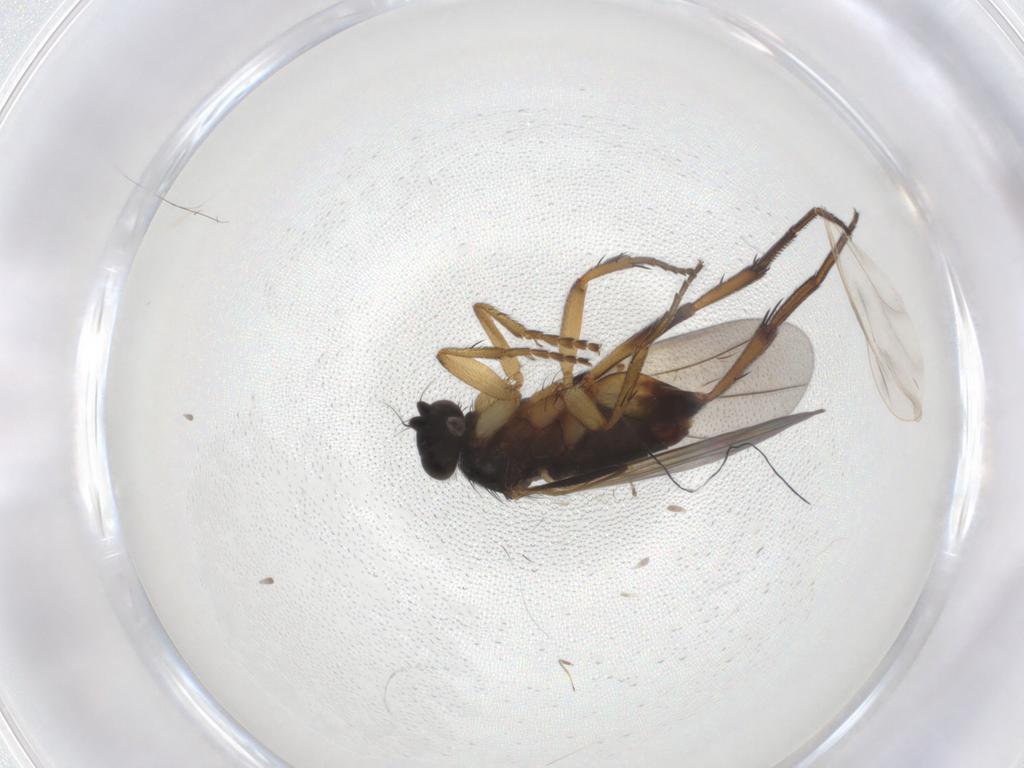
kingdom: Animalia
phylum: Arthropoda
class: Insecta
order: Diptera
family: Phoridae
